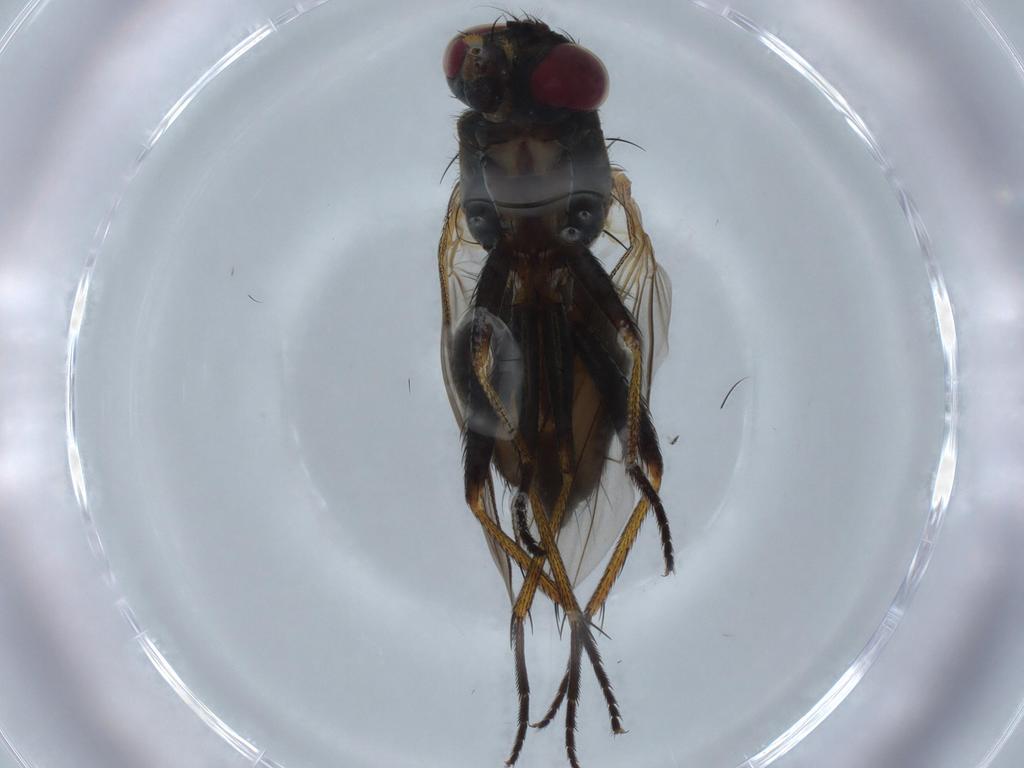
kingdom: Animalia
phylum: Arthropoda
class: Insecta
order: Diptera
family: Muscidae
